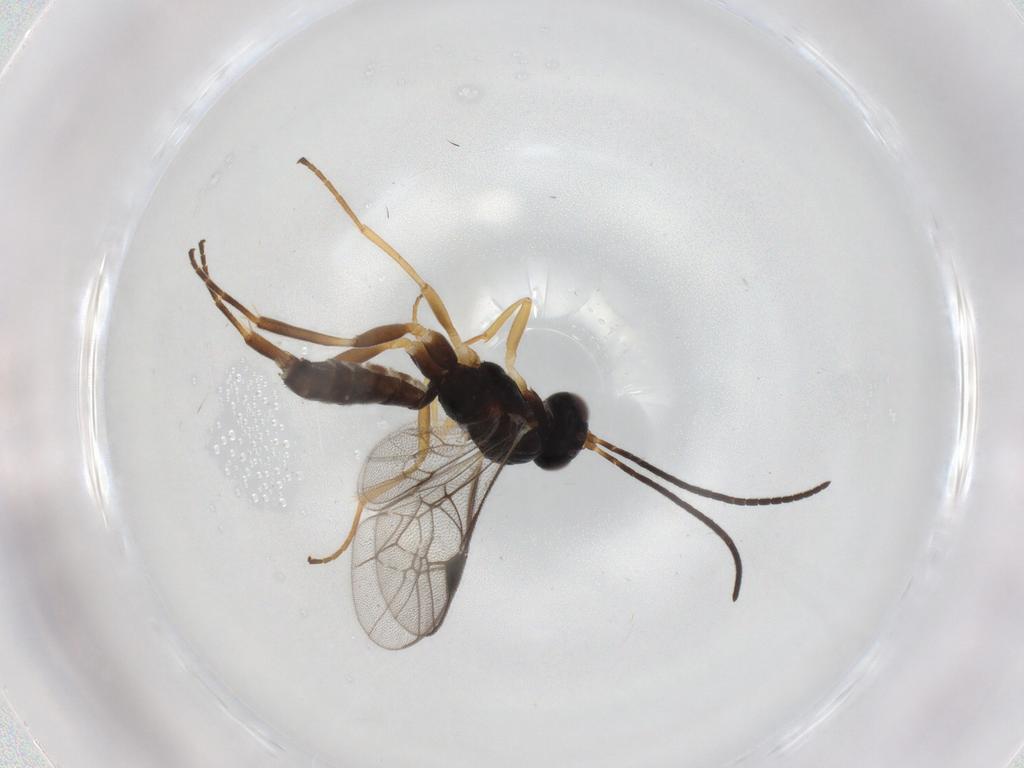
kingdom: Animalia
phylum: Arthropoda
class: Insecta
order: Hymenoptera
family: Ichneumonidae
